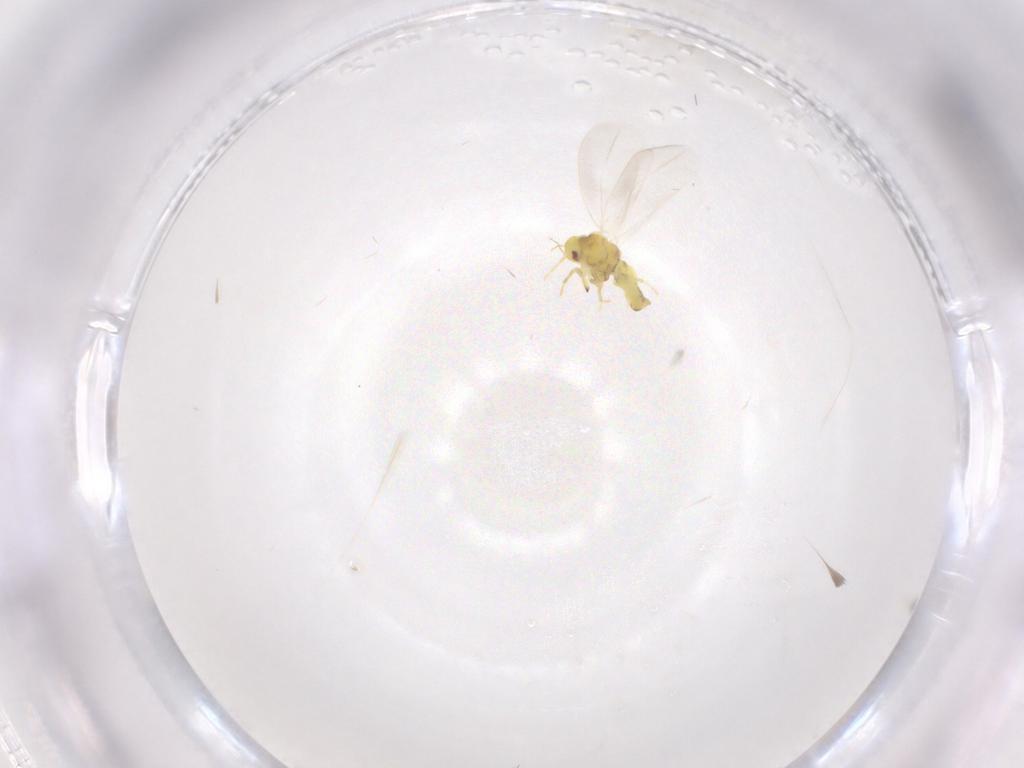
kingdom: Animalia
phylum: Arthropoda
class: Insecta
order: Hemiptera
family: Aleyrodidae
